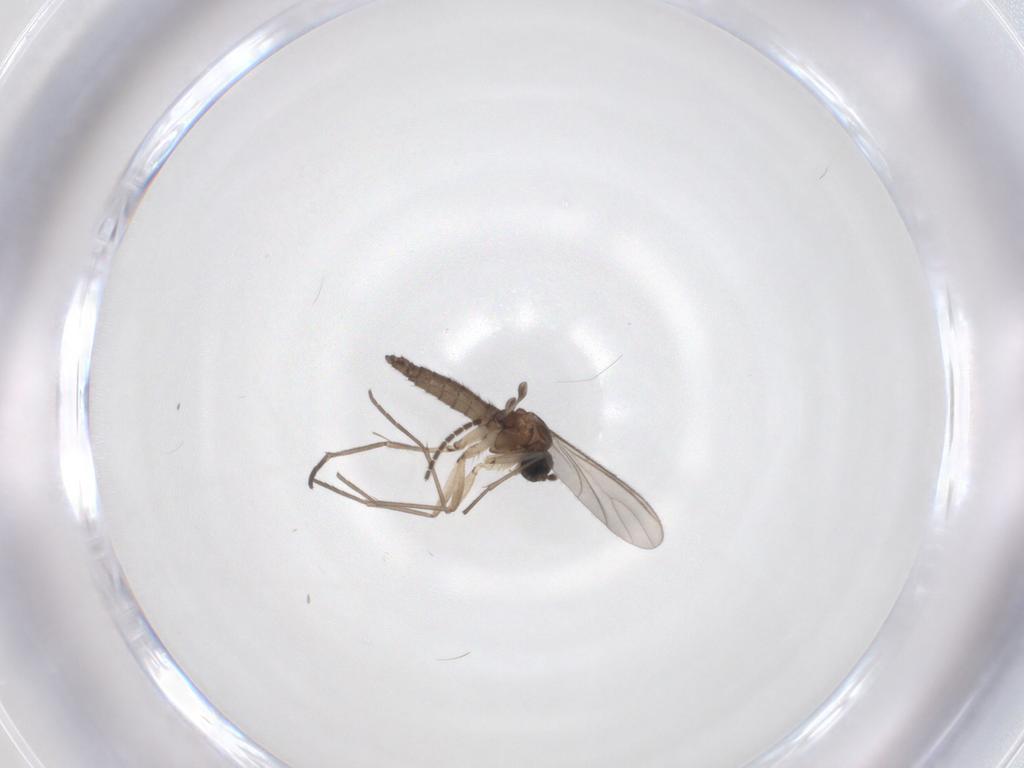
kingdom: Animalia
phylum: Arthropoda
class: Insecta
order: Diptera
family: Sciaridae
